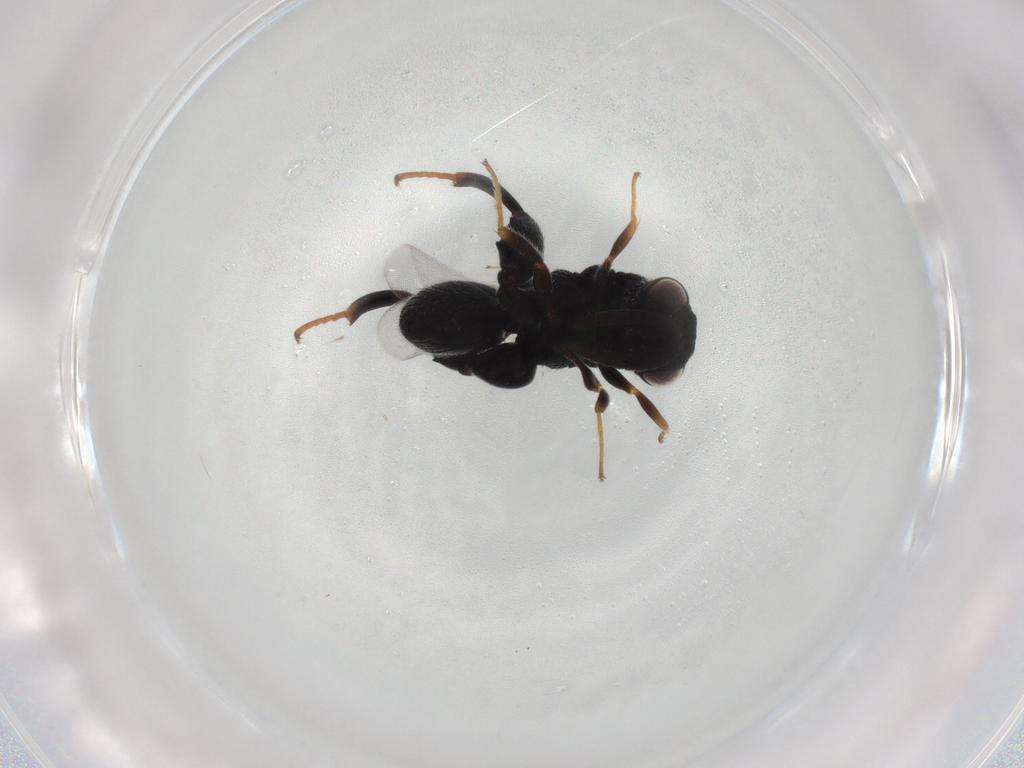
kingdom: Animalia
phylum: Arthropoda
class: Insecta
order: Hymenoptera
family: Chalcididae
